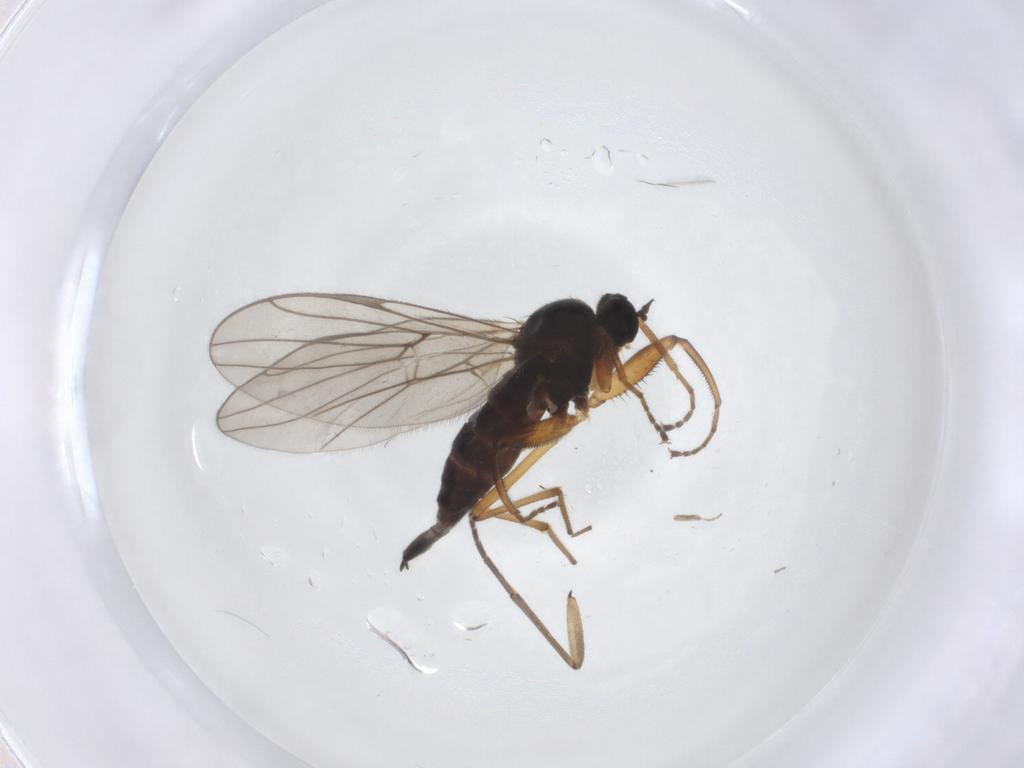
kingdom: Animalia
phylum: Arthropoda
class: Insecta
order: Diptera
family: Hybotidae
